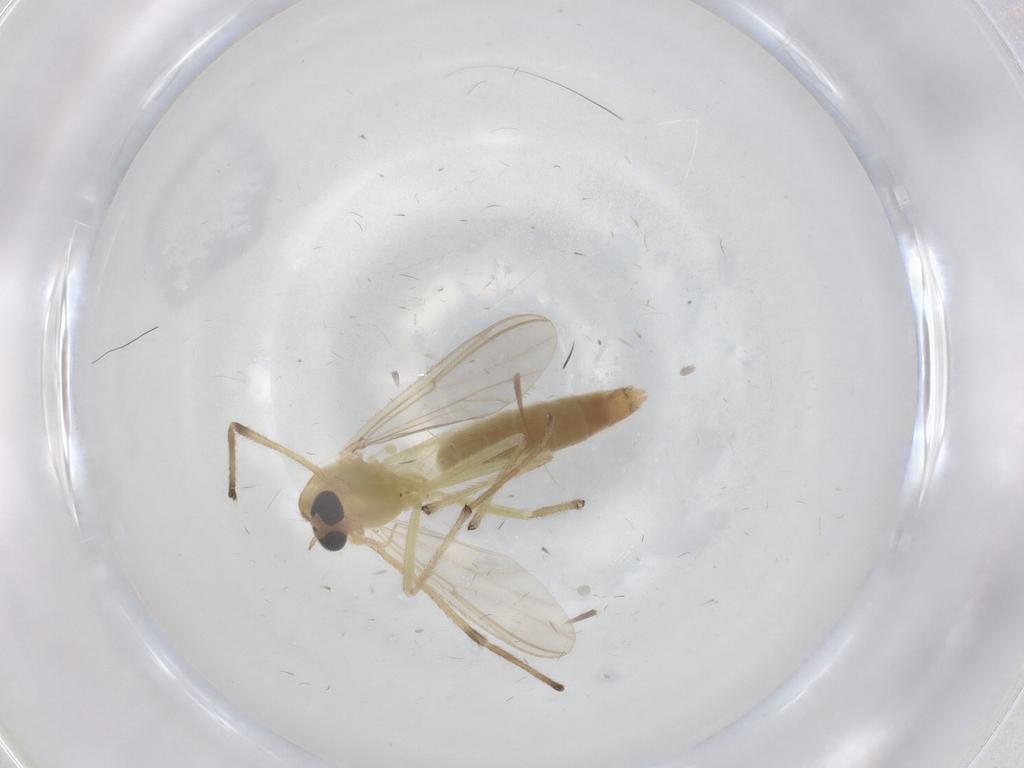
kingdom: Animalia
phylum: Arthropoda
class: Insecta
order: Diptera
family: Chironomidae
